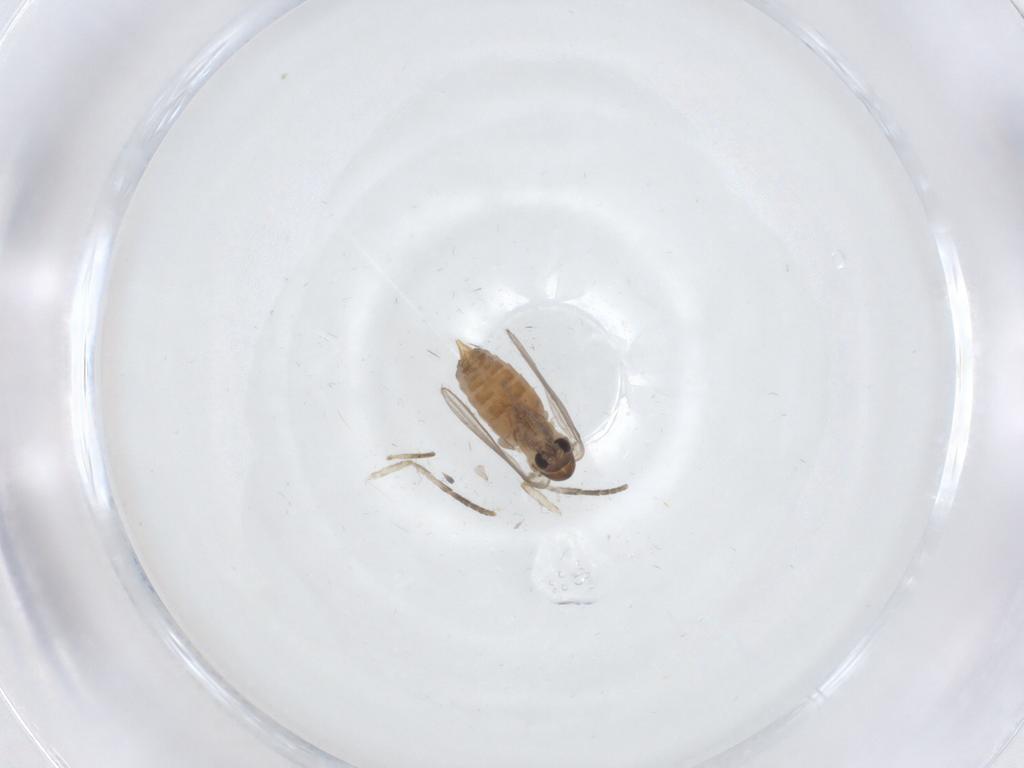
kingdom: Animalia
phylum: Arthropoda
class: Insecta
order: Diptera
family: Psychodidae
